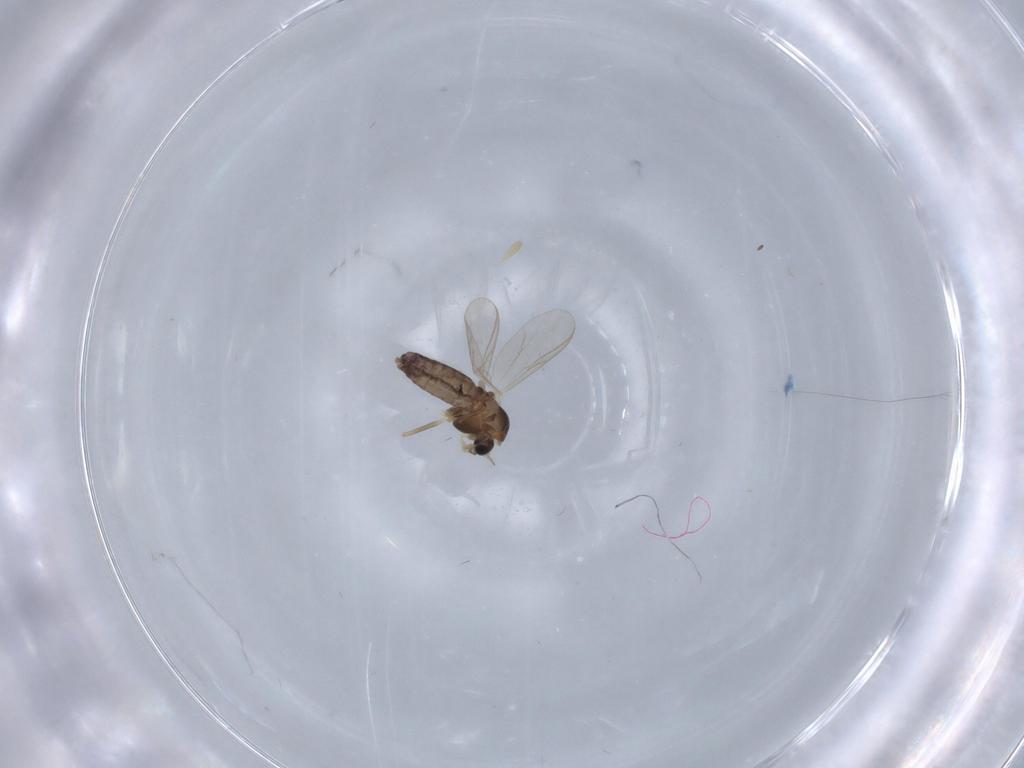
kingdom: Animalia
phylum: Arthropoda
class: Insecta
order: Diptera
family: Chironomidae
